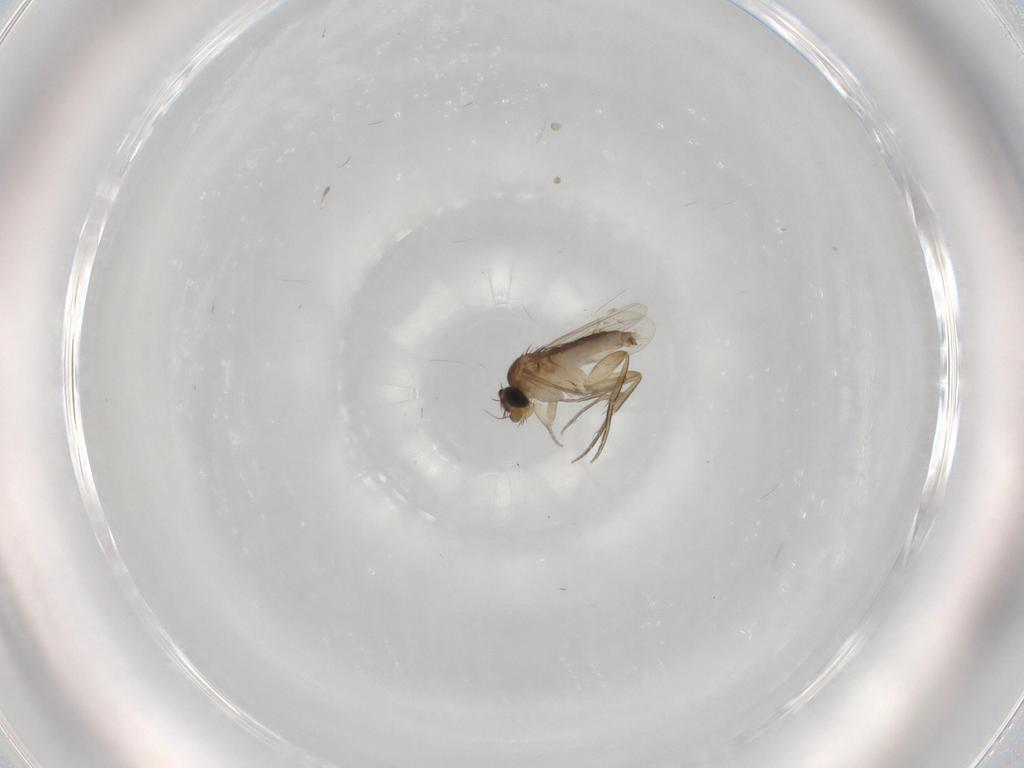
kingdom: Animalia
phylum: Arthropoda
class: Insecta
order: Diptera
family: Phoridae
